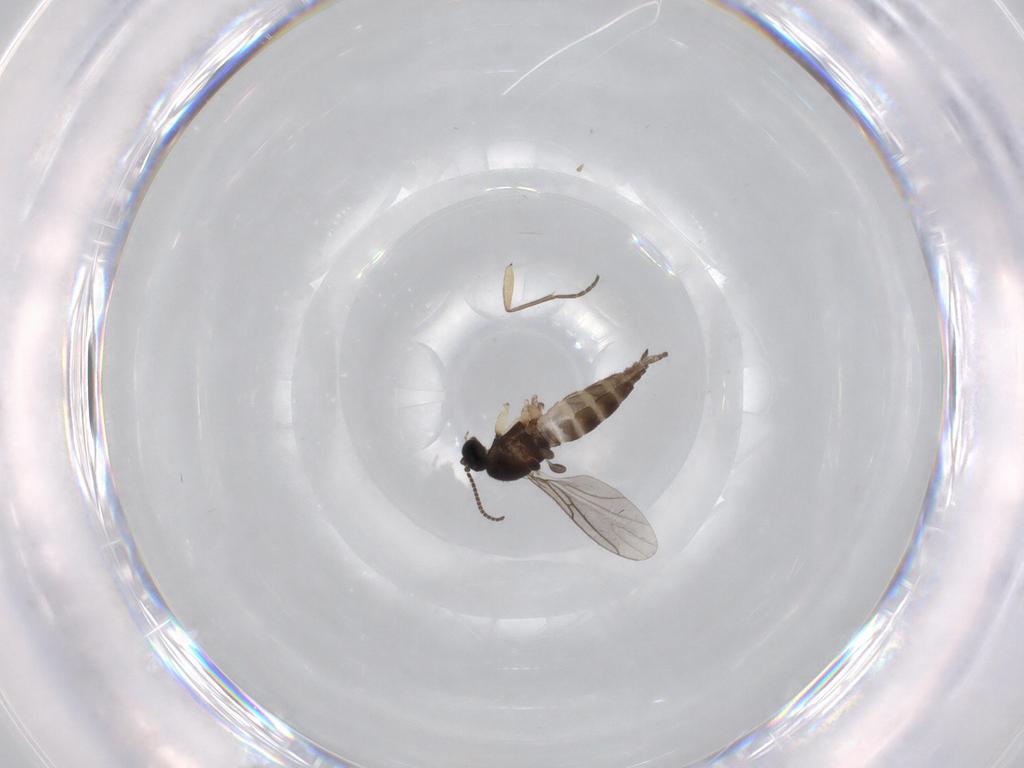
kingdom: Animalia
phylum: Arthropoda
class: Insecta
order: Diptera
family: Sciaridae
